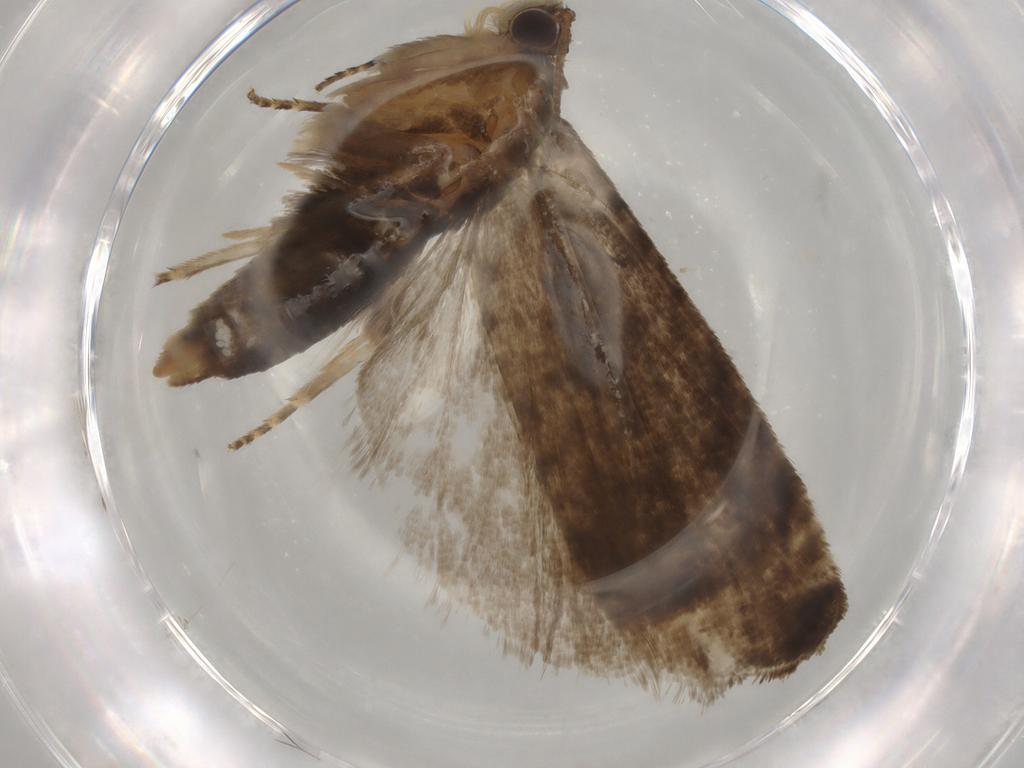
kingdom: Animalia
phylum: Arthropoda
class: Insecta
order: Lepidoptera
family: Tortricidae
